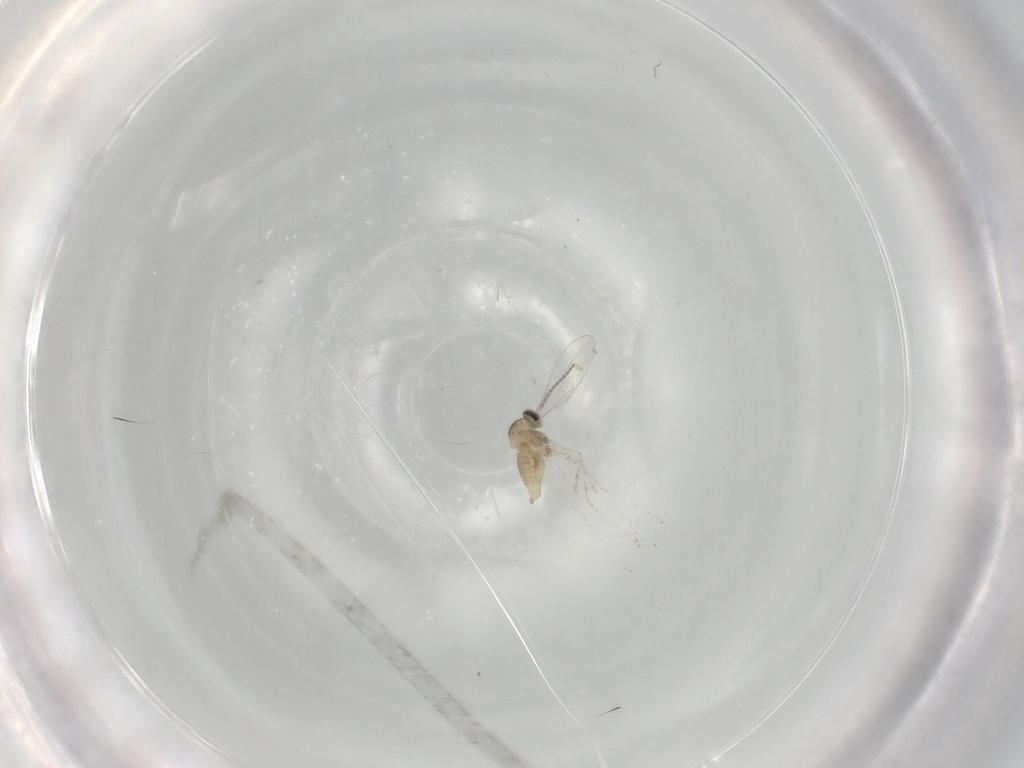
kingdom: Animalia
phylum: Arthropoda
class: Insecta
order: Diptera
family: Cecidomyiidae
